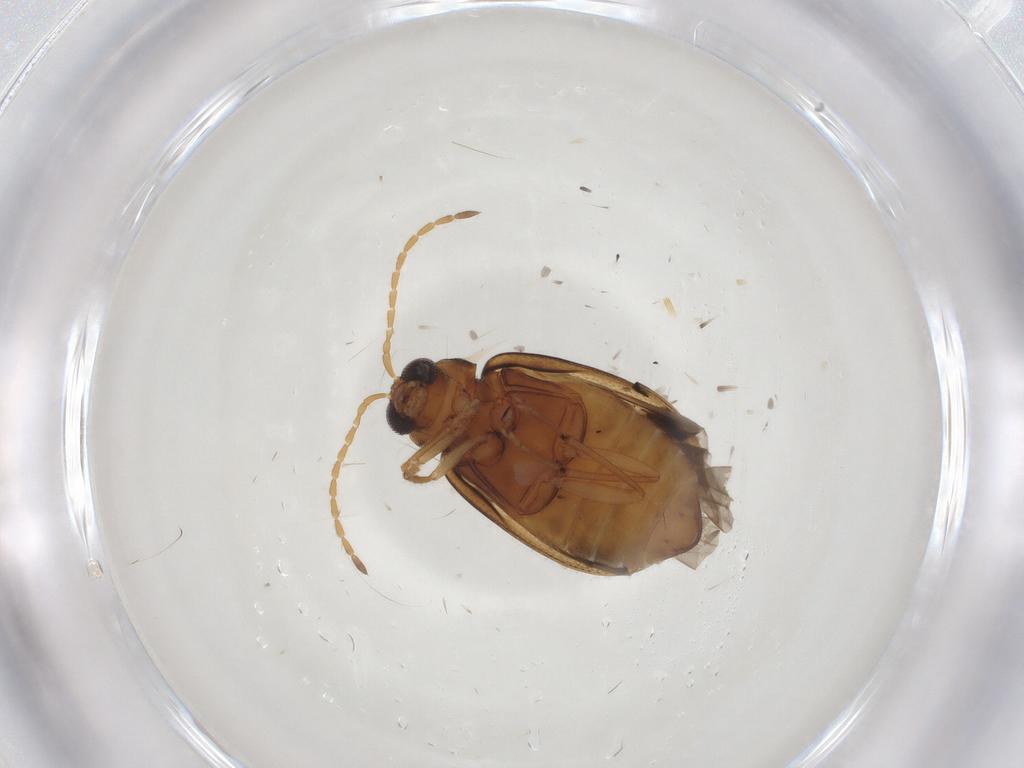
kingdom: Animalia
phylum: Arthropoda
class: Insecta
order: Coleoptera
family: Chrysomelidae
